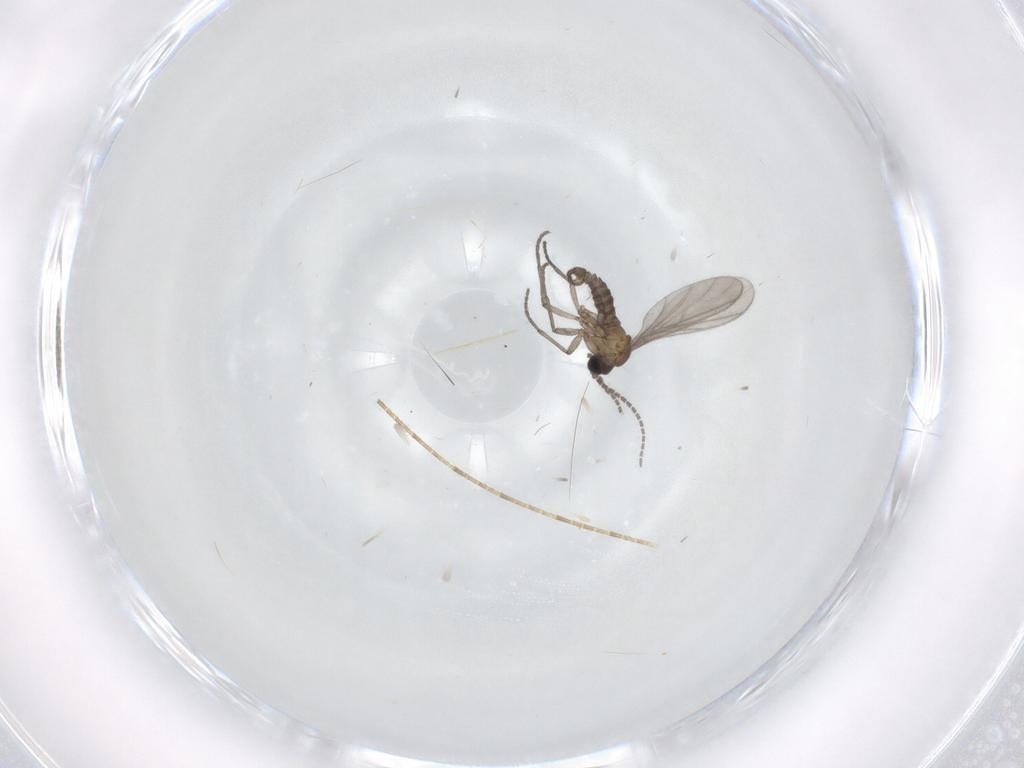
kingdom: Animalia
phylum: Arthropoda
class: Insecta
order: Diptera
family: Sciaridae
